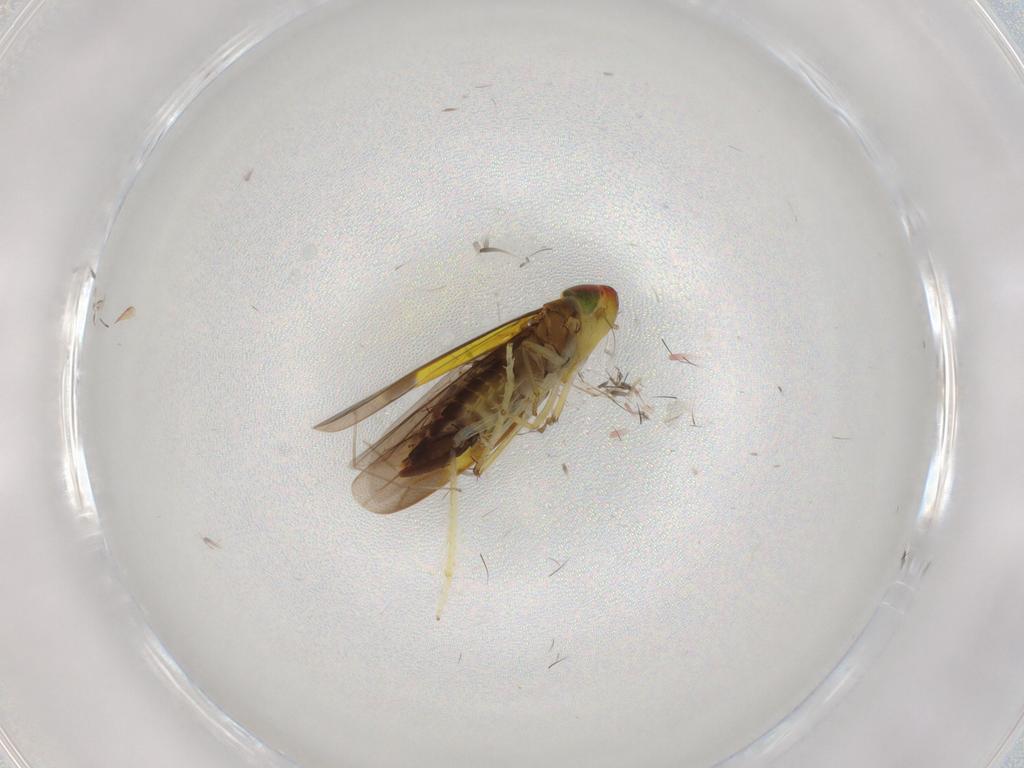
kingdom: Animalia
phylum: Arthropoda
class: Insecta
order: Hemiptera
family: Cicadellidae
